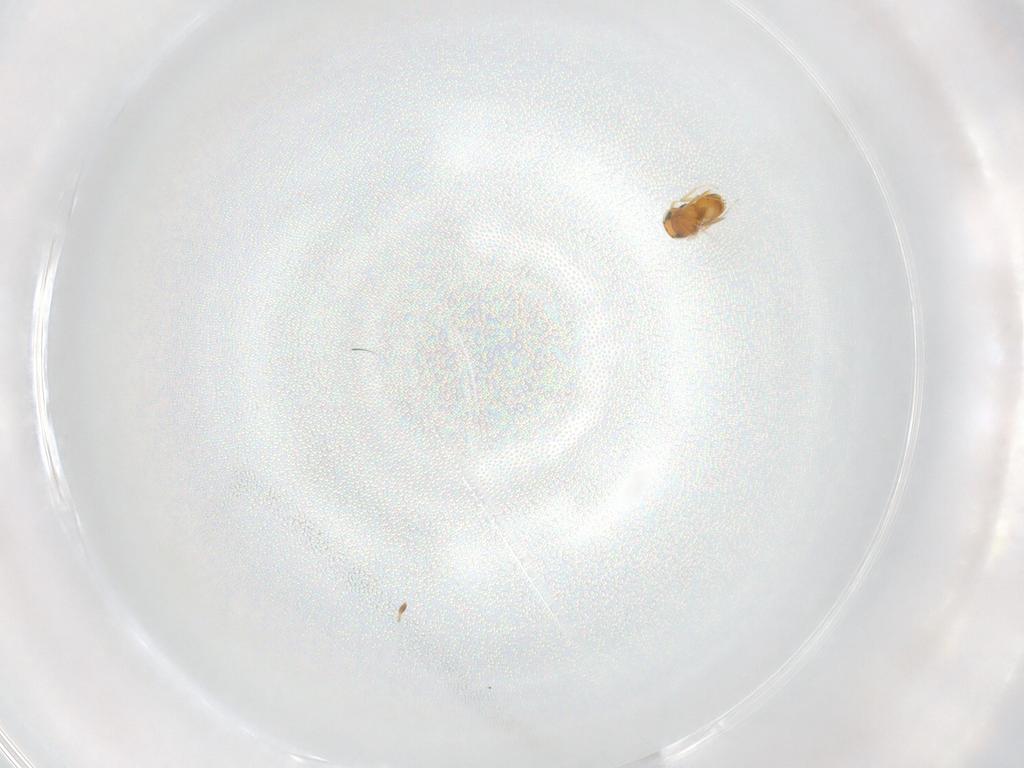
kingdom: Animalia
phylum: Arthropoda
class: Insecta
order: Hymenoptera
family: Scelionidae
